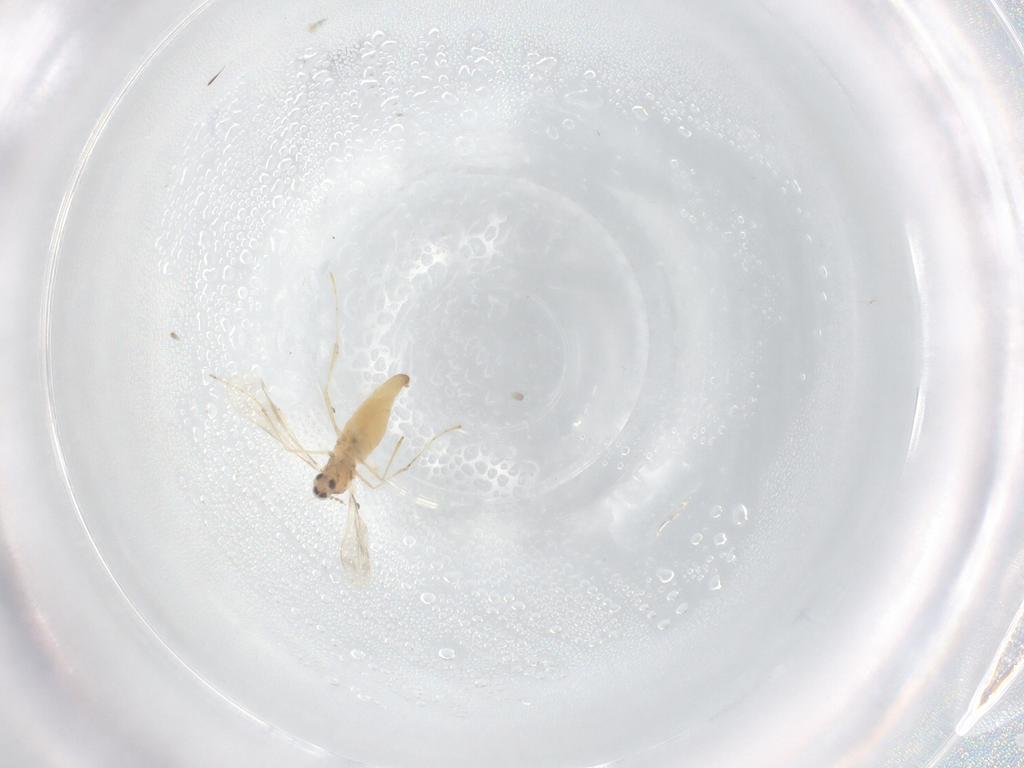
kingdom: Animalia
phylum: Arthropoda
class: Insecta
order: Diptera
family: Cecidomyiidae
